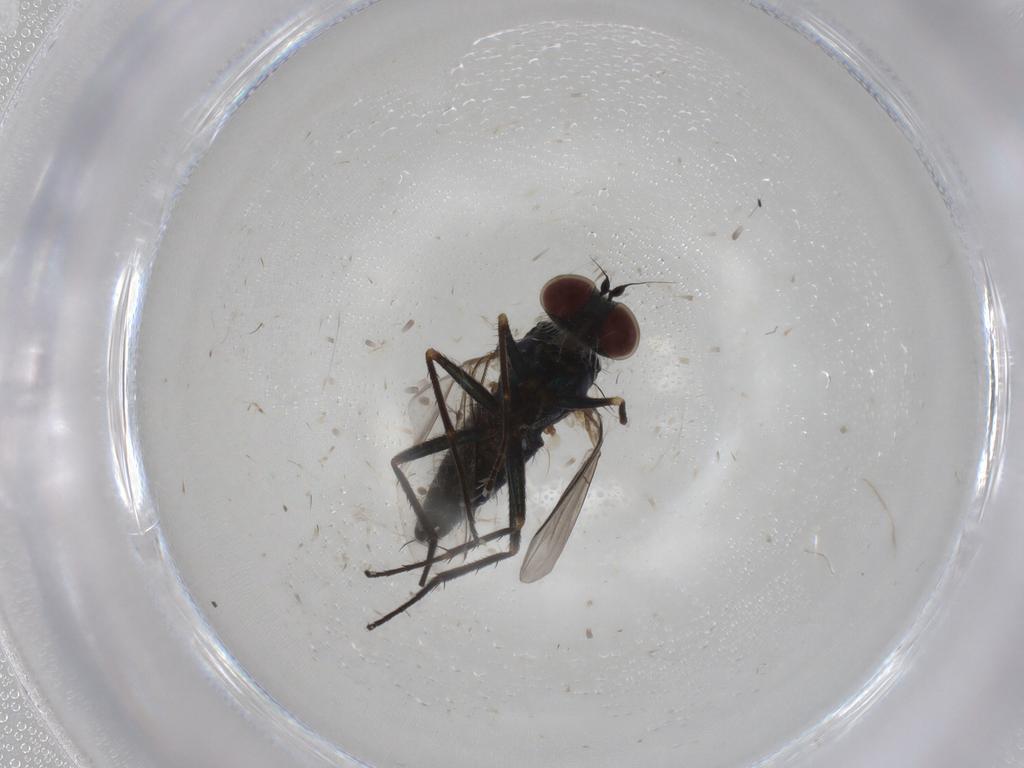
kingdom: Animalia
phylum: Arthropoda
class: Insecta
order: Diptera
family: Dolichopodidae
